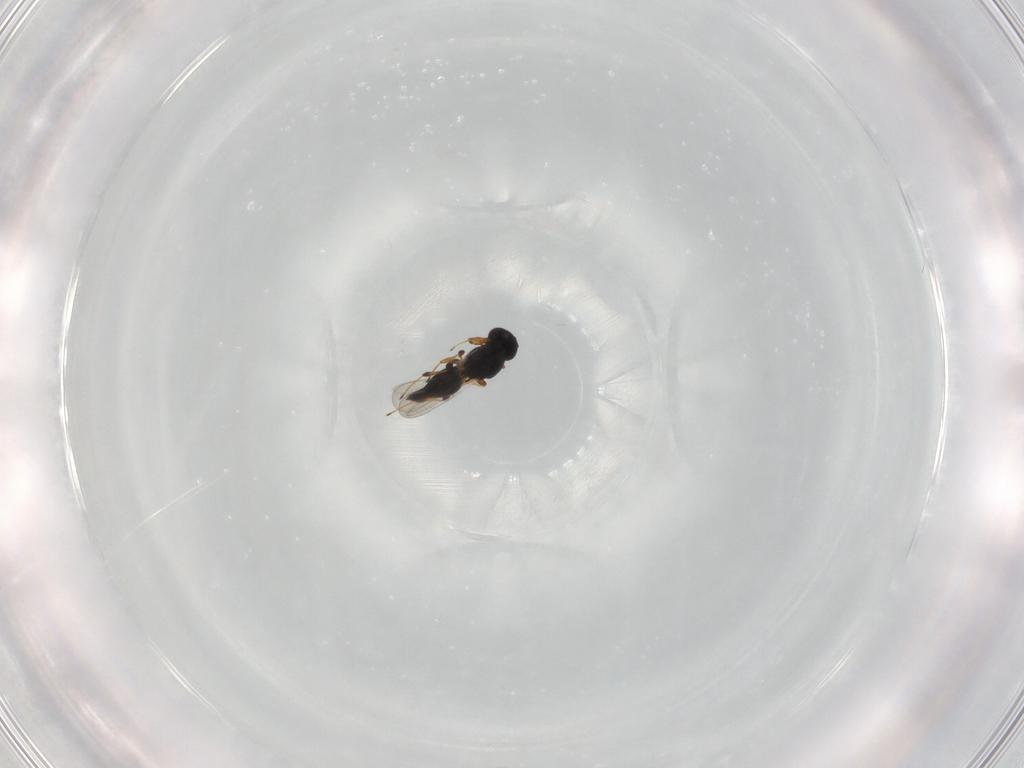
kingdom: Animalia
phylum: Arthropoda
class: Insecta
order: Hymenoptera
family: Platygastridae
